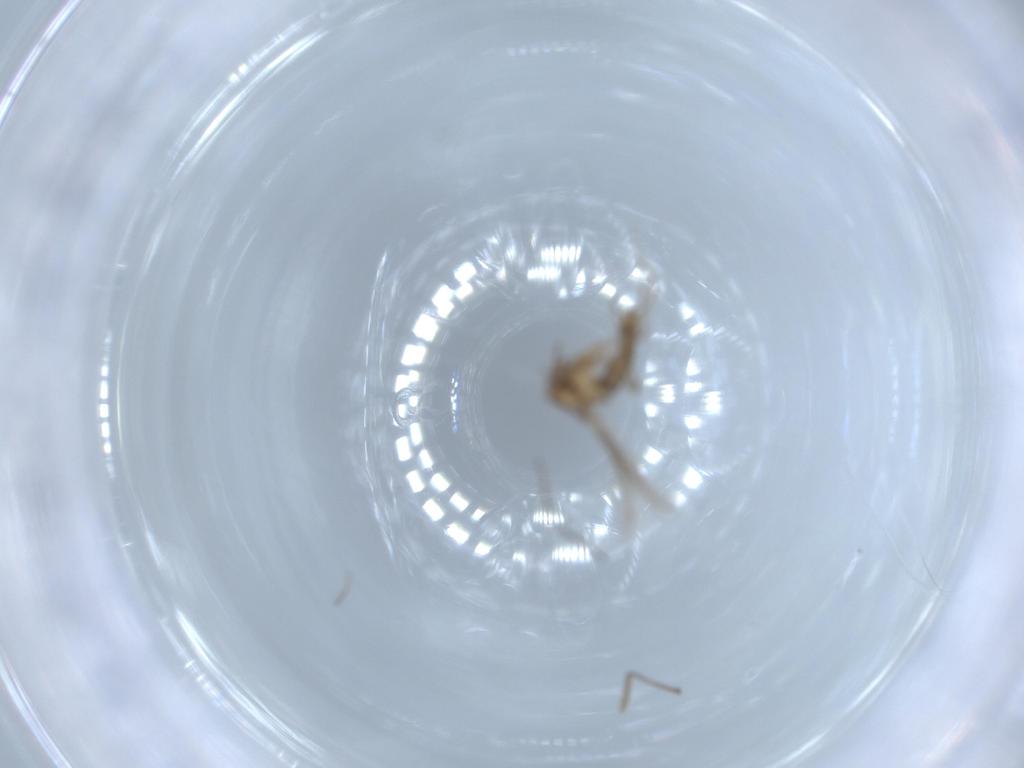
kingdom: Animalia
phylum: Arthropoda
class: Insecta
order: Diptera
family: Chironomidae
